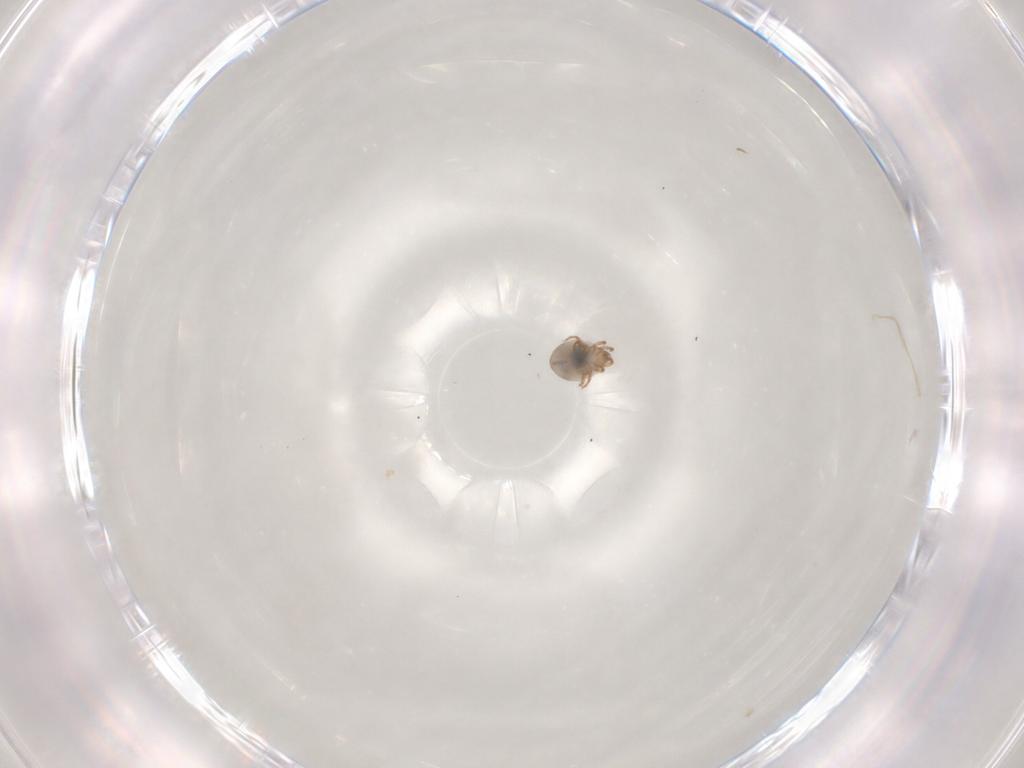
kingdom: Animalia
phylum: Arthropoda
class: Arachnida
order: Sarcoptiformes
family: Humerobatidae
